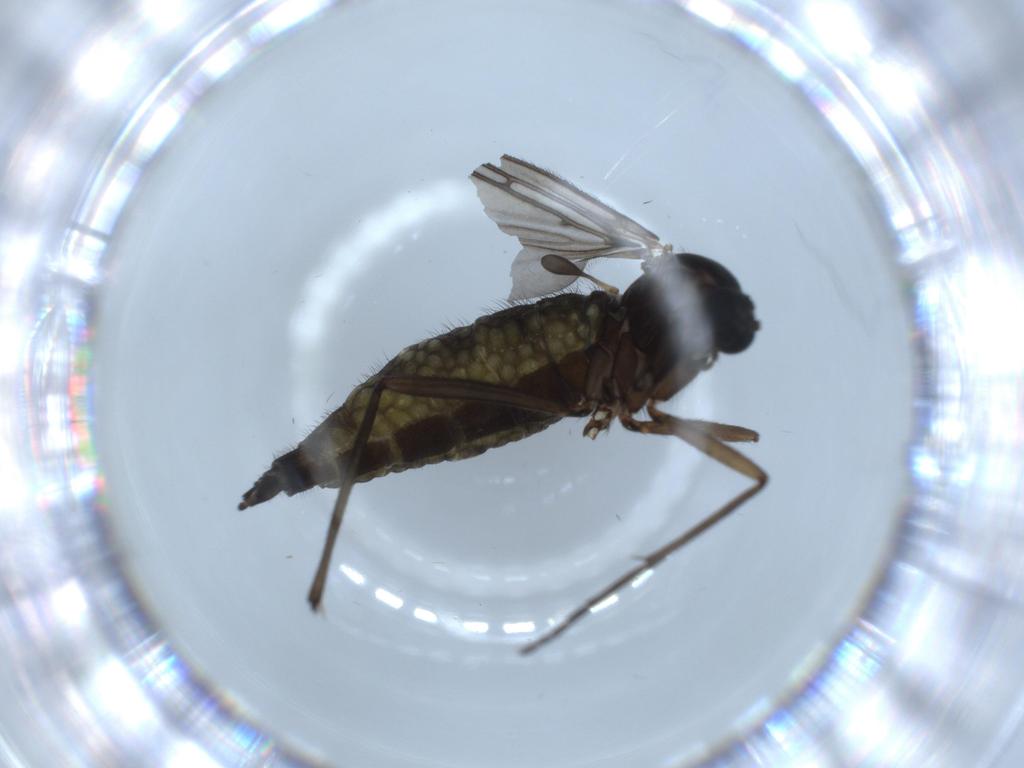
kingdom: Animalia
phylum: Arthropoda
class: Insecta
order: Diptera
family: Sciaridae
